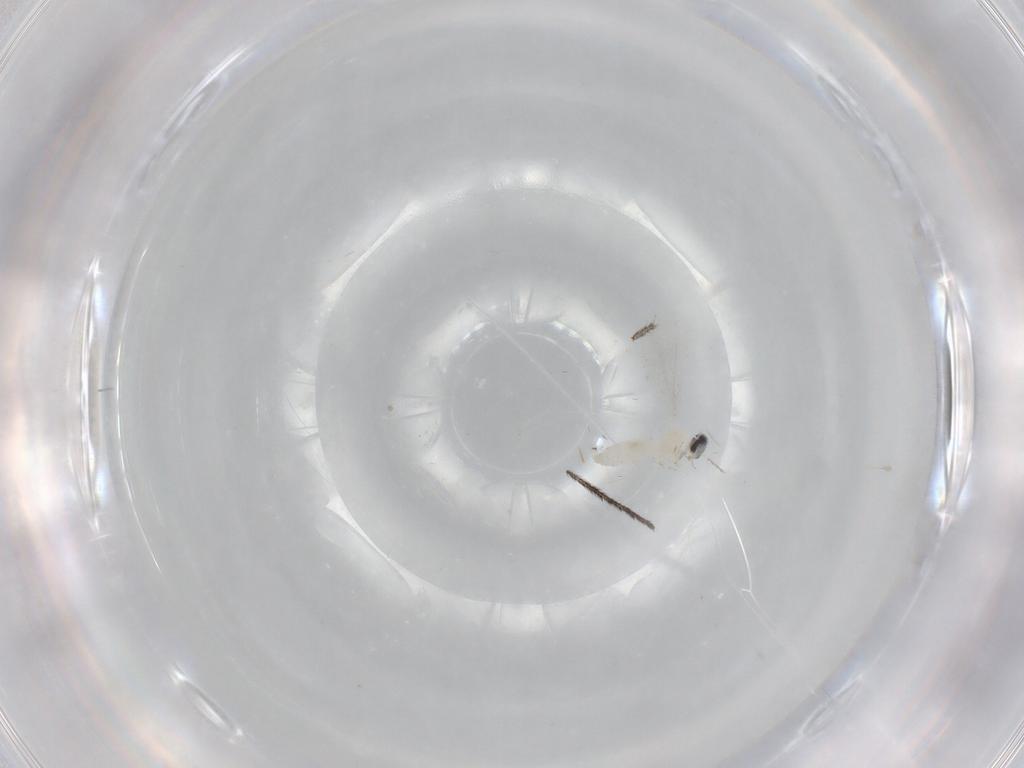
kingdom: Animalia
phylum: Arthropoda
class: Insecta
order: Diptera
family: Cecidomyiidae
